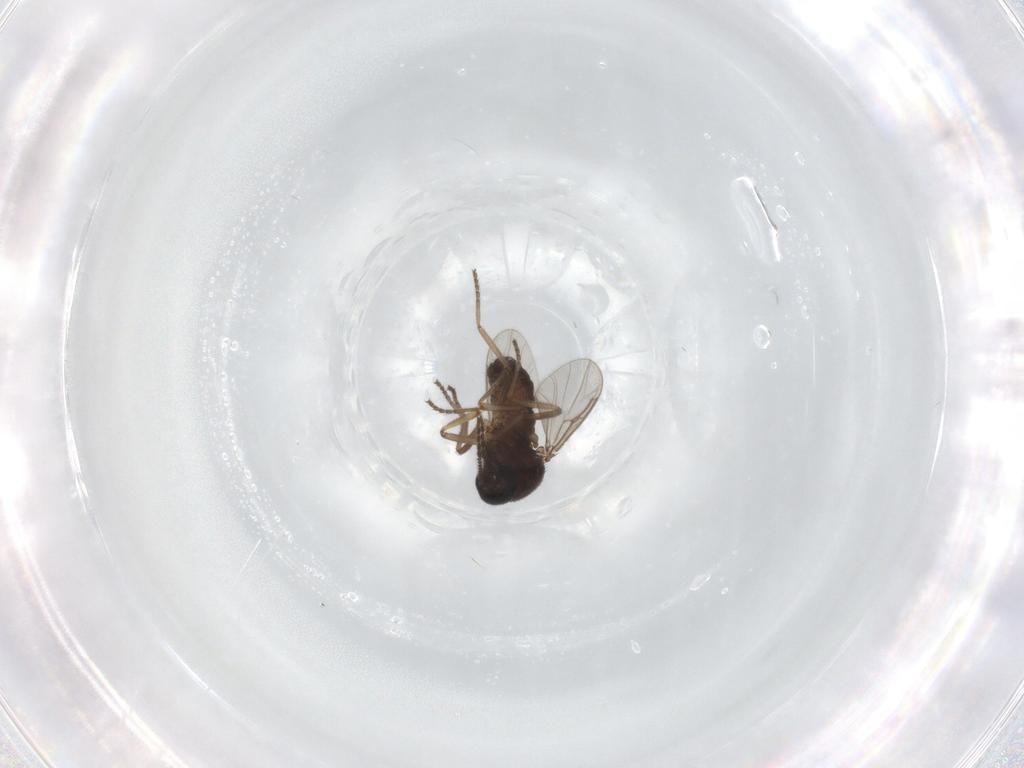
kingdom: Animalia
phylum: Arthropoda
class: Insecta
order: Diptera
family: Ceratopogonidae
